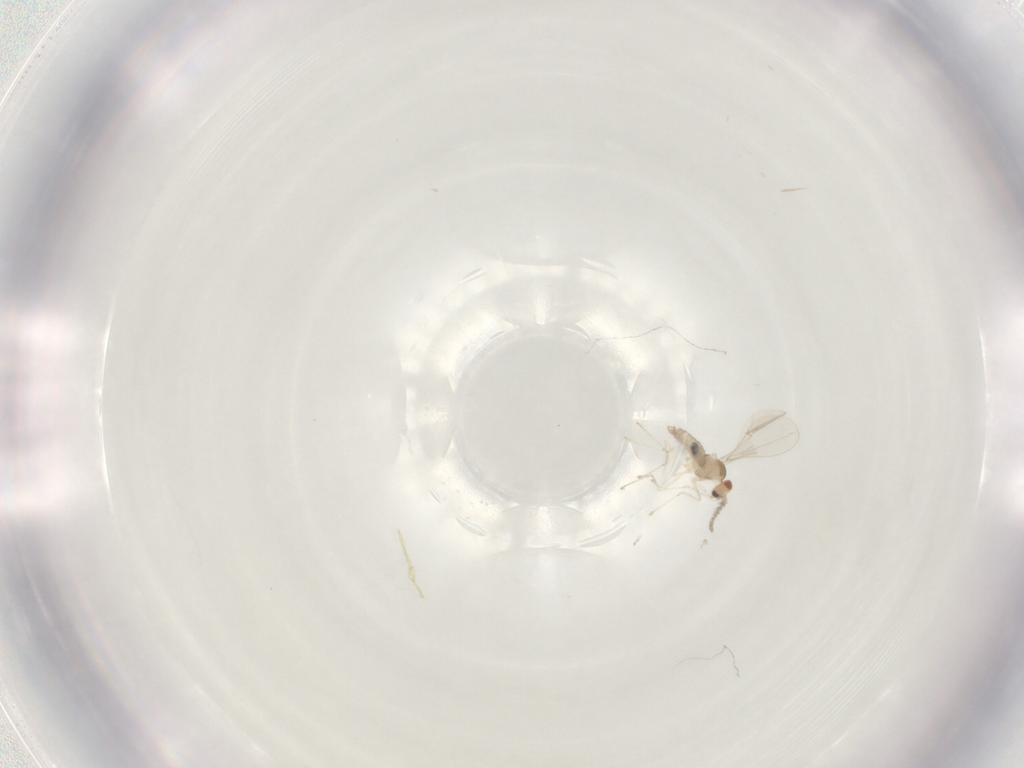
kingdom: Animalia
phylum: Arthropoda
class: Insecta
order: Diptera
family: Cecidomyiidae
